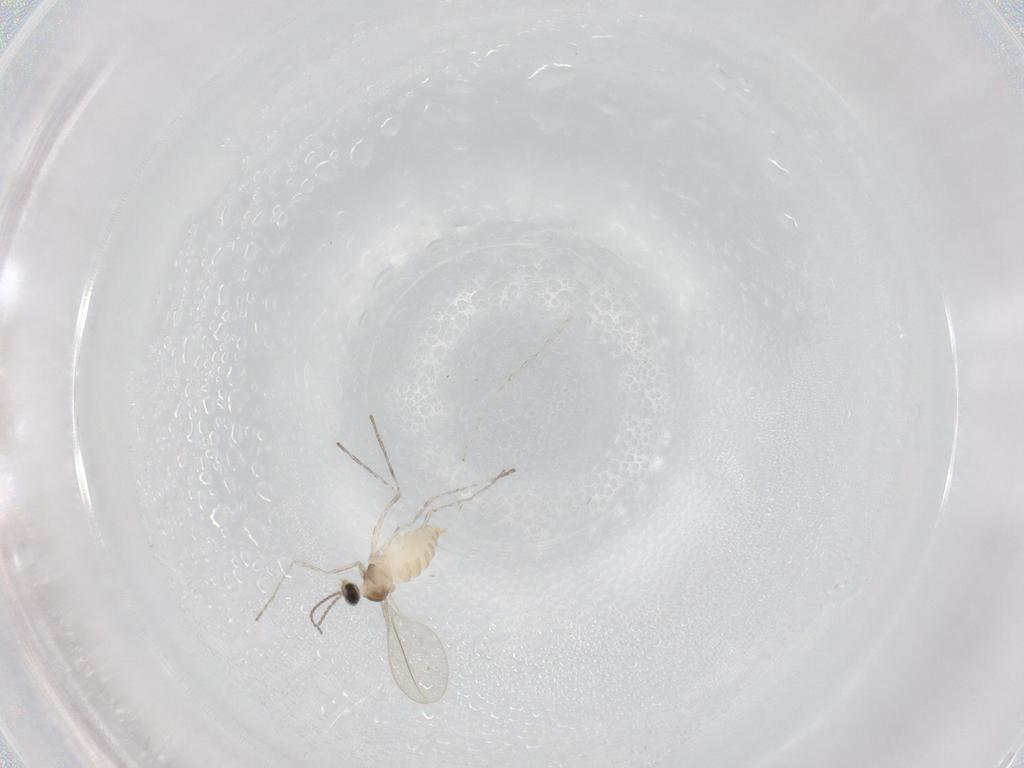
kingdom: Animalia
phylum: Arthropoda
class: Insecta
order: Diptera
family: Cecidomyiidae
